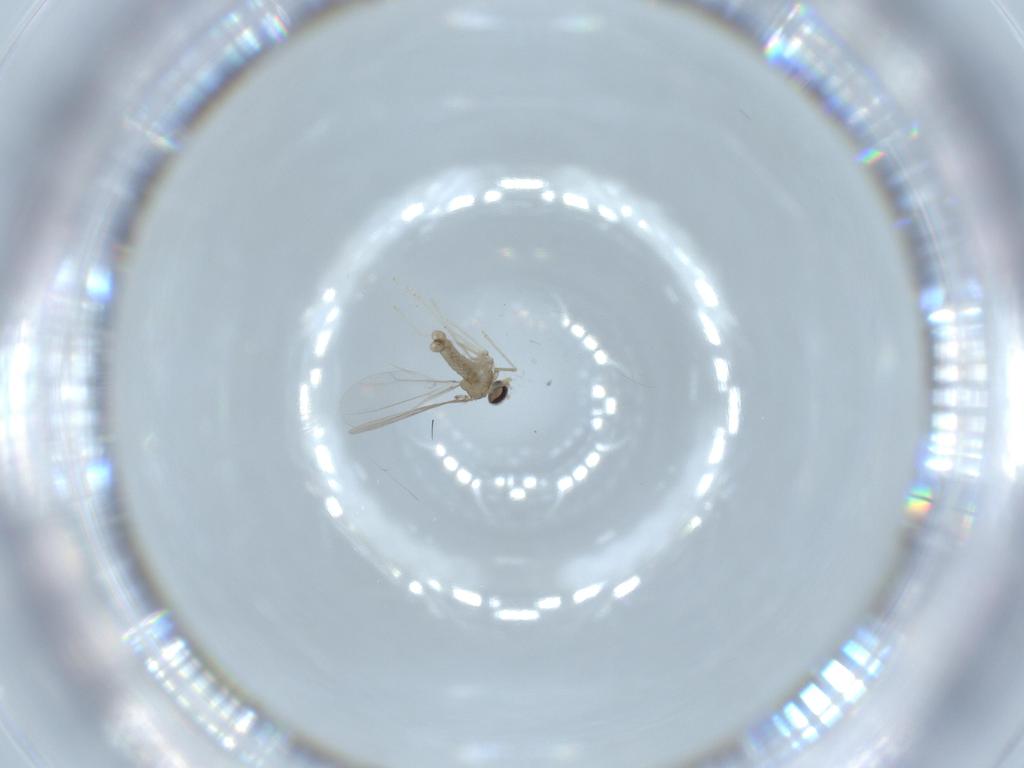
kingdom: Animalia
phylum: Arthropoda
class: Insecta
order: Diptera
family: Cecidomyiidae
